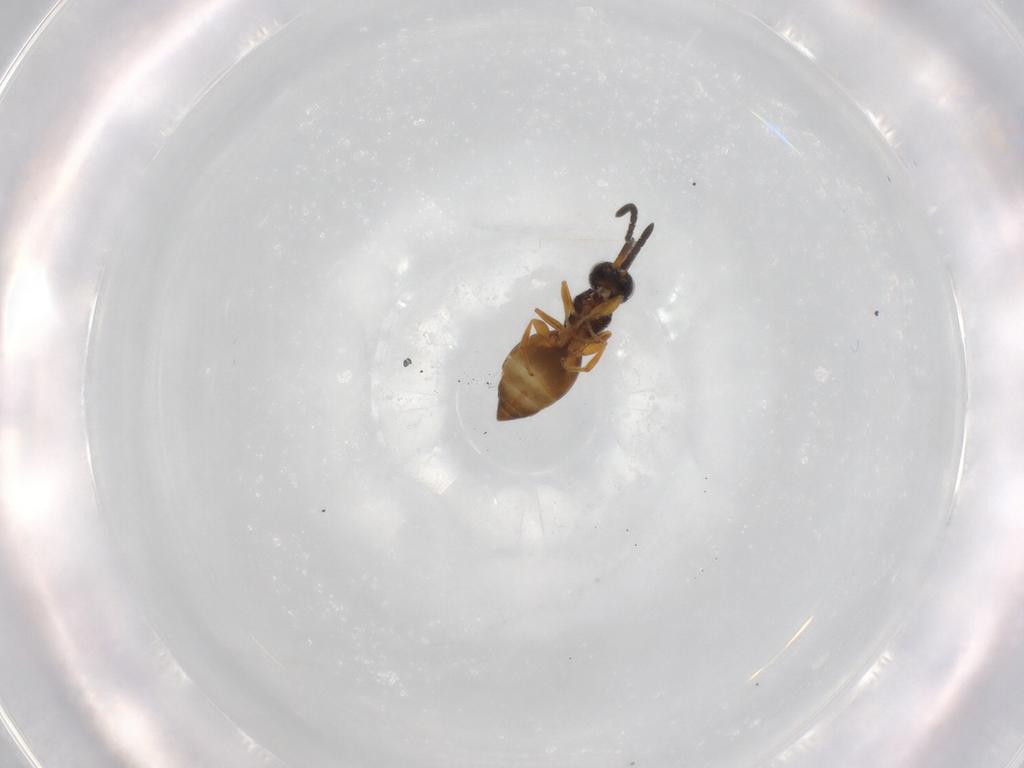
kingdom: Animalia
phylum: Arthropoda
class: Insecta
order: Hymenoptera
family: Megaspilidae
